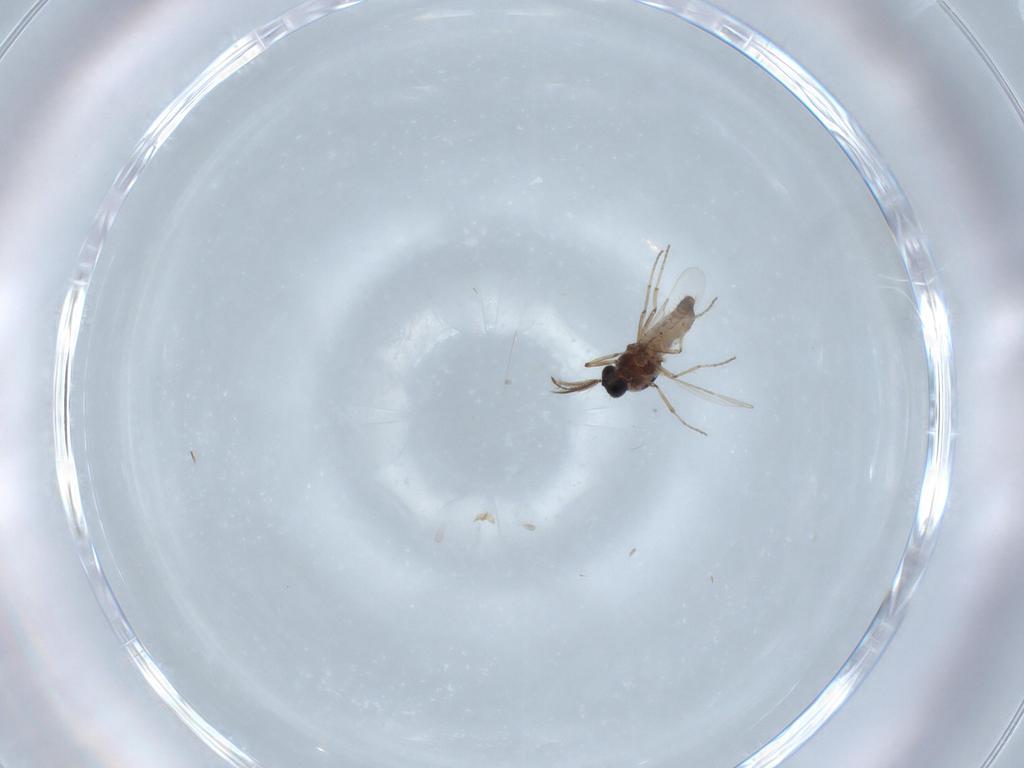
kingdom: Animalia
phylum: Arthropoda
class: Insecta
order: Diptera
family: Ceratopogonidae
